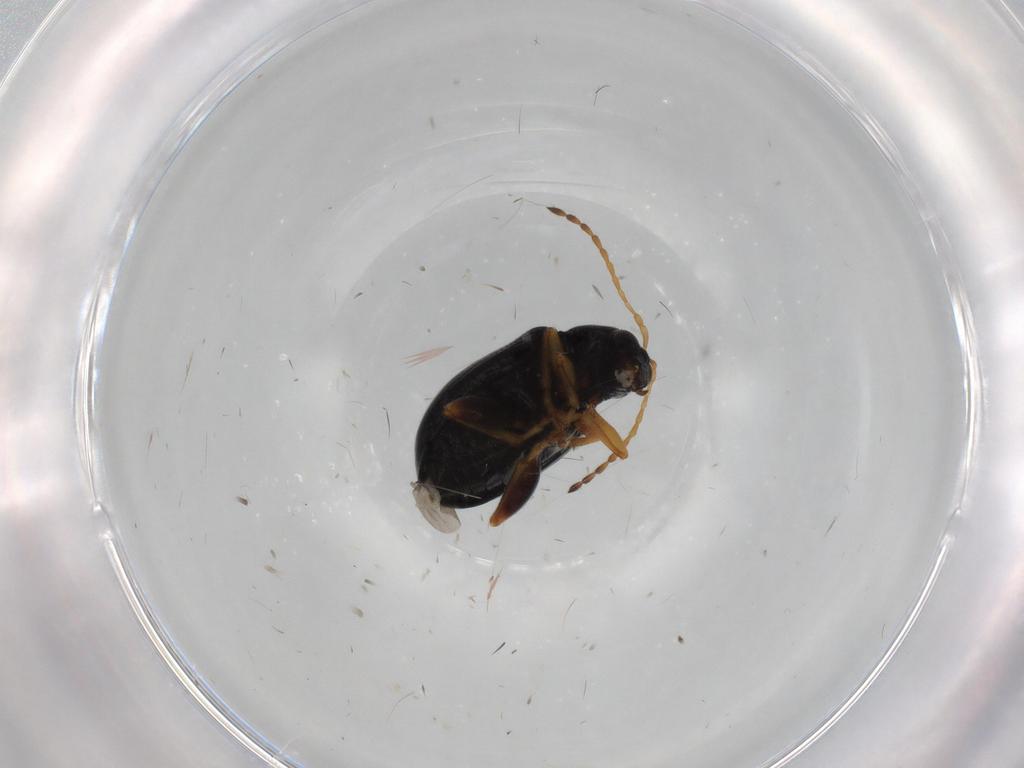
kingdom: Animalia
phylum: Arthropoda
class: Insecta
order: Coleoptera
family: Chrysomelidae
